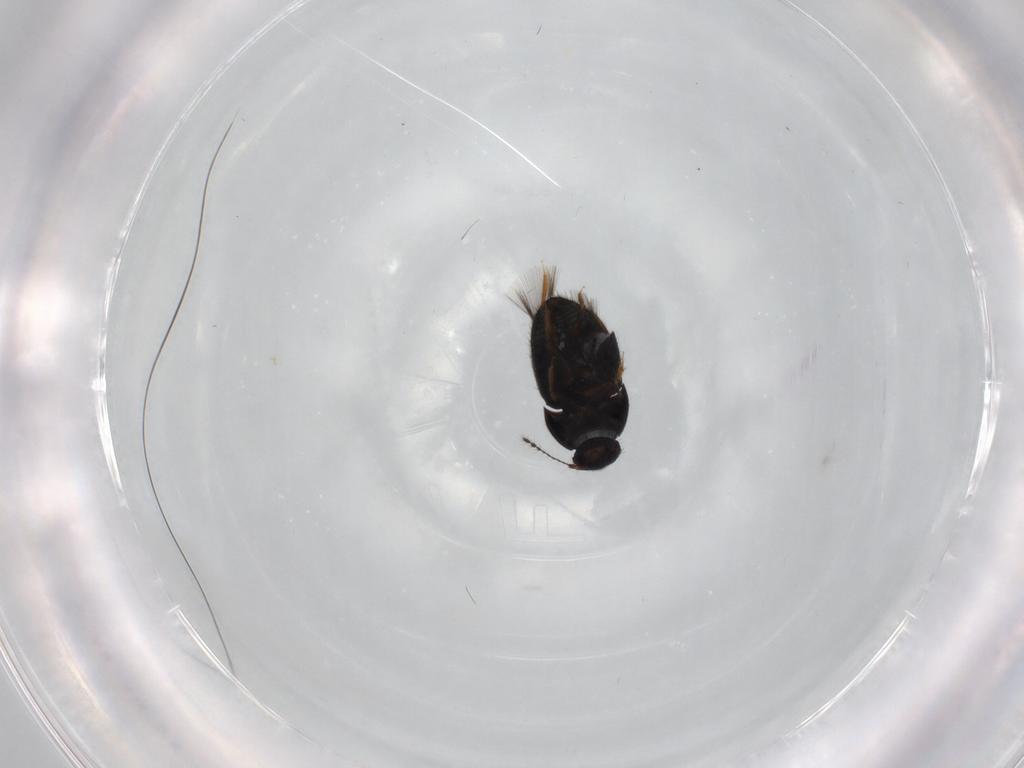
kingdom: Animalia
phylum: Arthropoda
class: Insecta
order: Coleoptera
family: Ptiliidae
